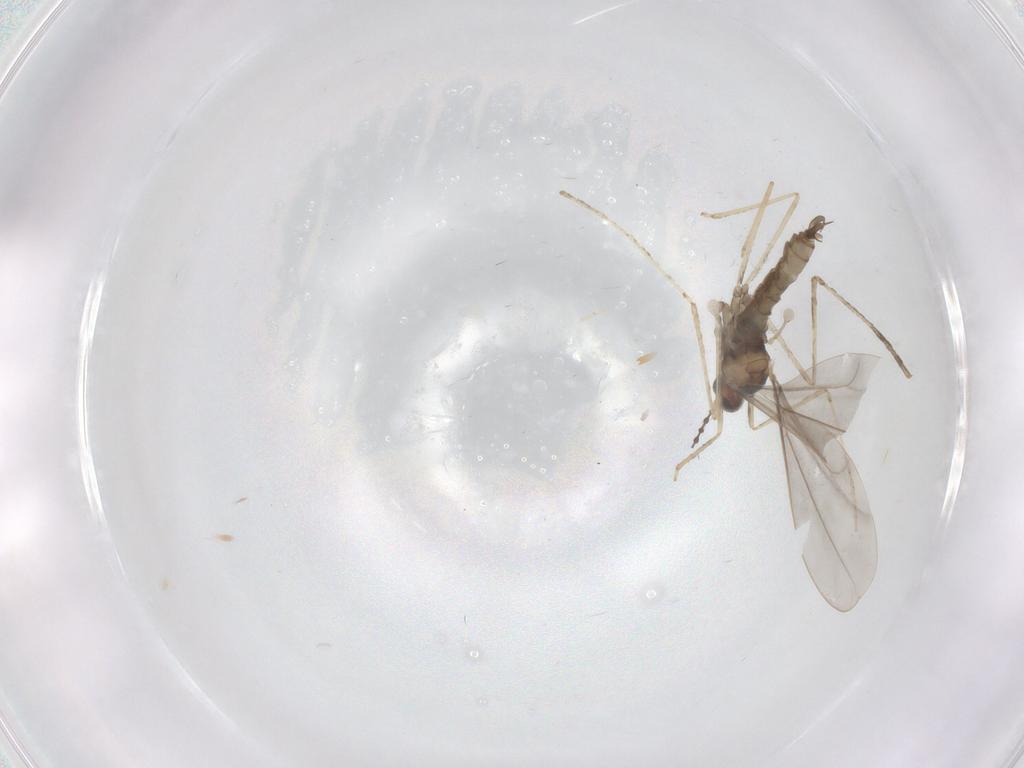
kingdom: Animalia
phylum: Arthropoda
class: Insecta
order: Diptera
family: Cecidomyiidae
